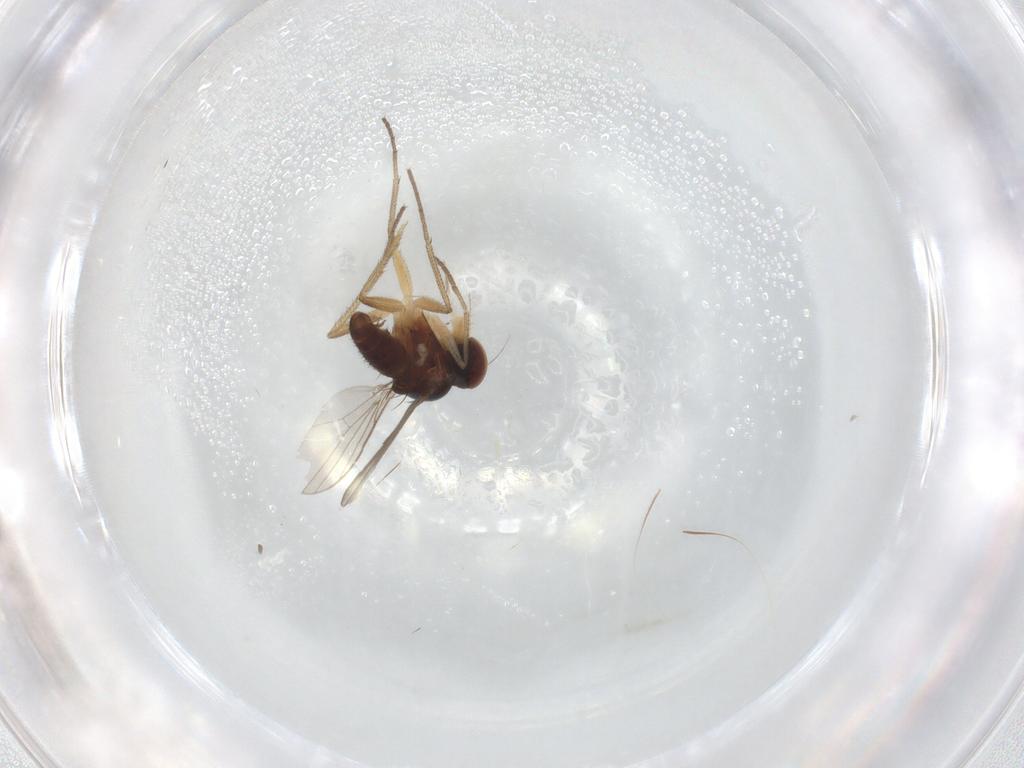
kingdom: Animalia
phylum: Arthropoda
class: Insecta
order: Diptera
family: Dolichopodidae
